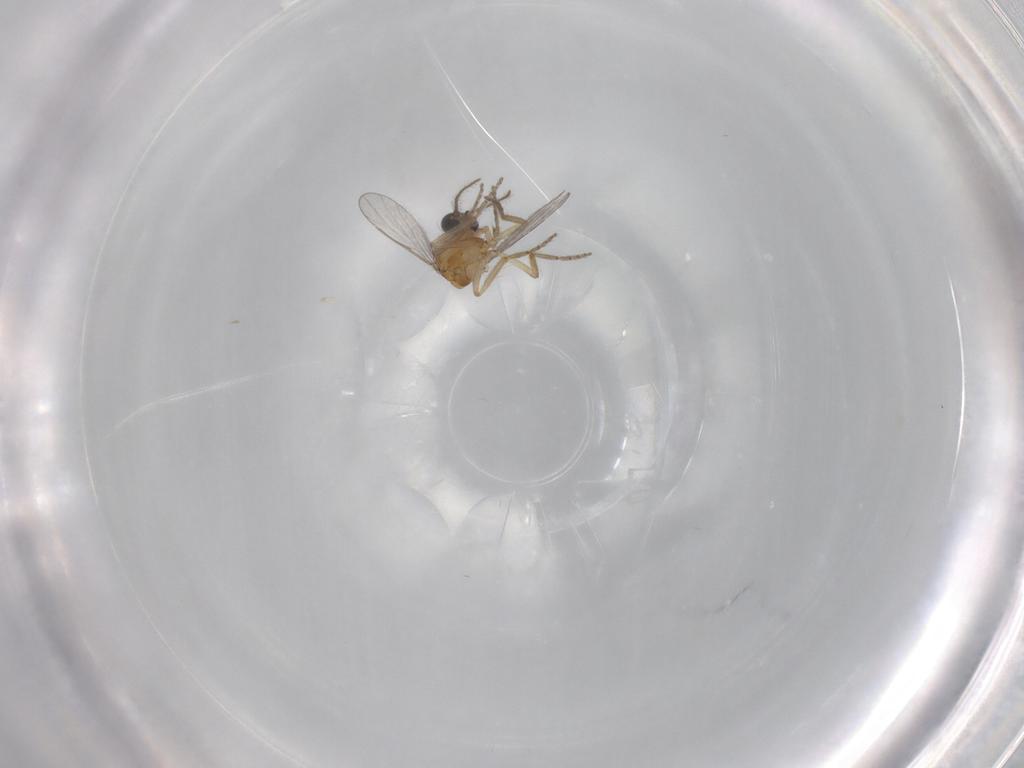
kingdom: Animalia
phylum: Arthropoda
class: Insecta
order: Diptera
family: Ceratopogonidae
